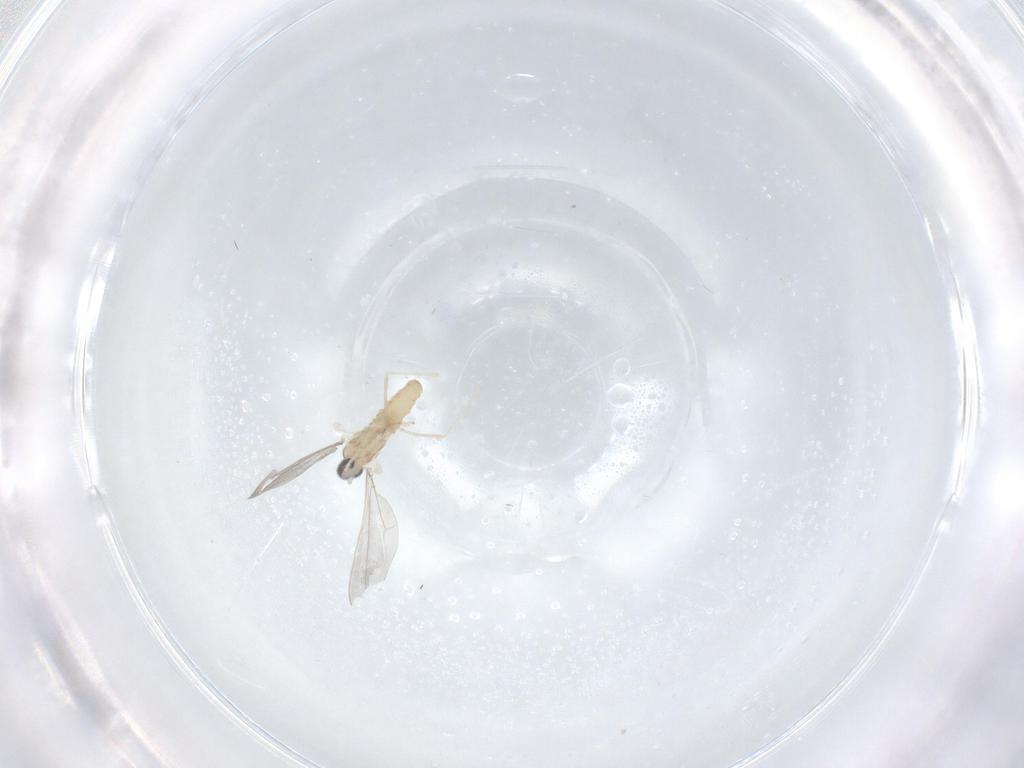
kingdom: Animalia
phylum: Arthropoda
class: Insecta
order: Diptera
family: Cecidomyiidae
